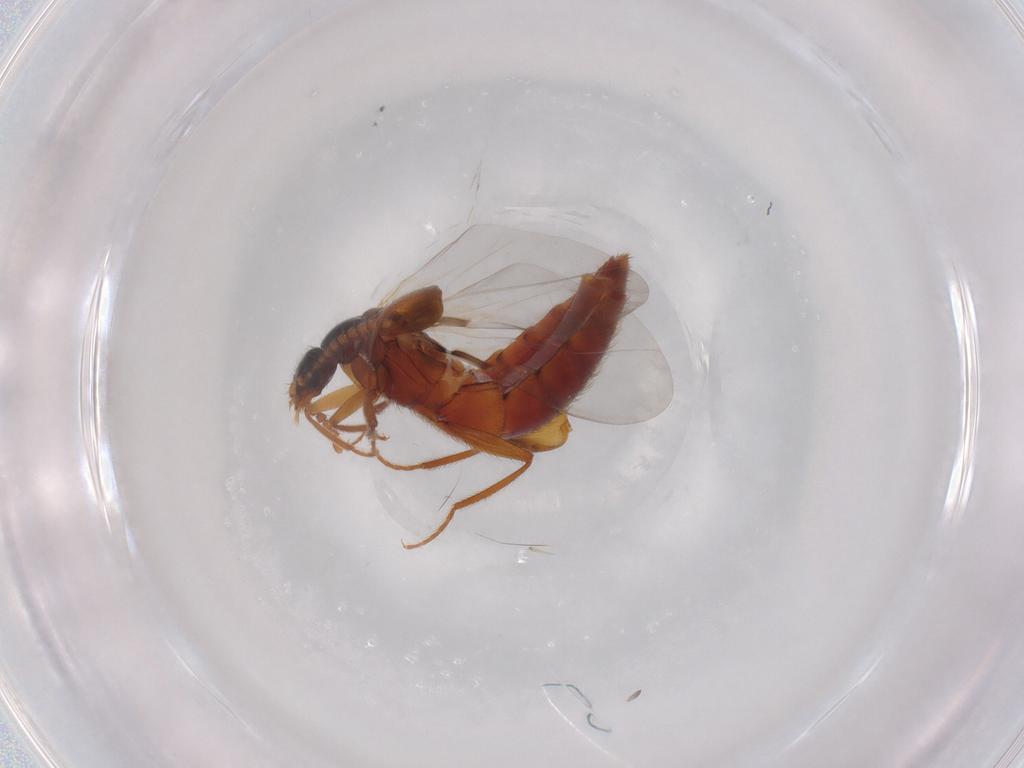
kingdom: Animalia
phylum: Arthropoda
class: Insecta
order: Coleoptera
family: Staphylinidae
